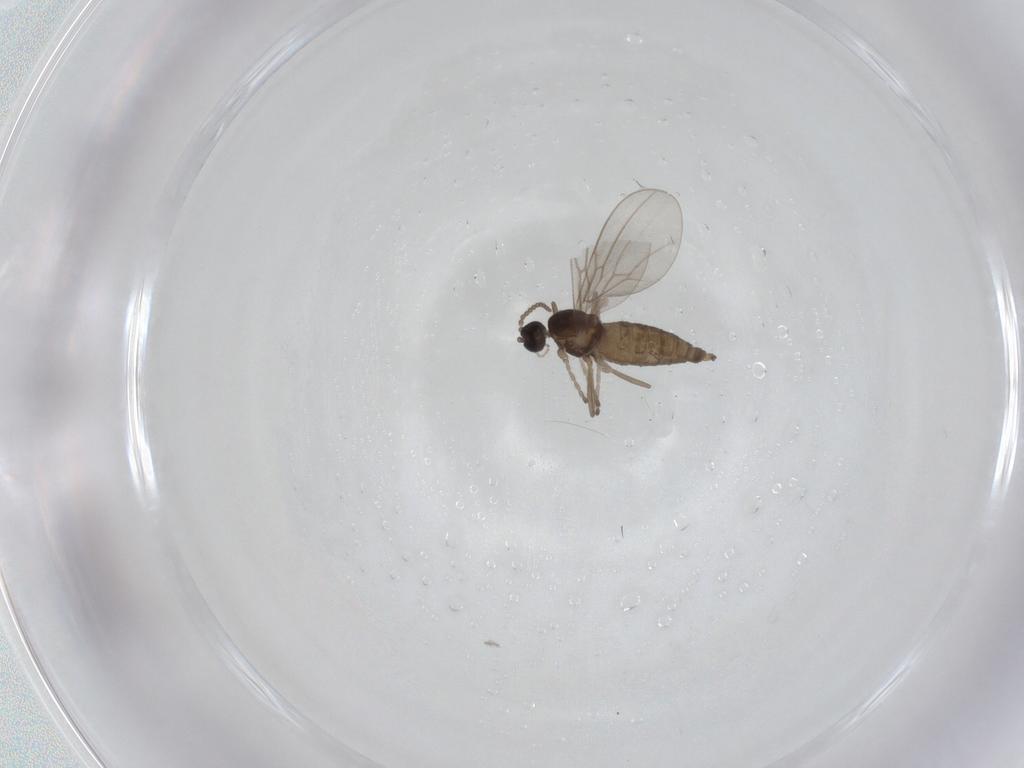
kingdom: Animalia
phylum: Arthropoda
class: Insecta
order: Diptera
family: Cecidomyiidae
